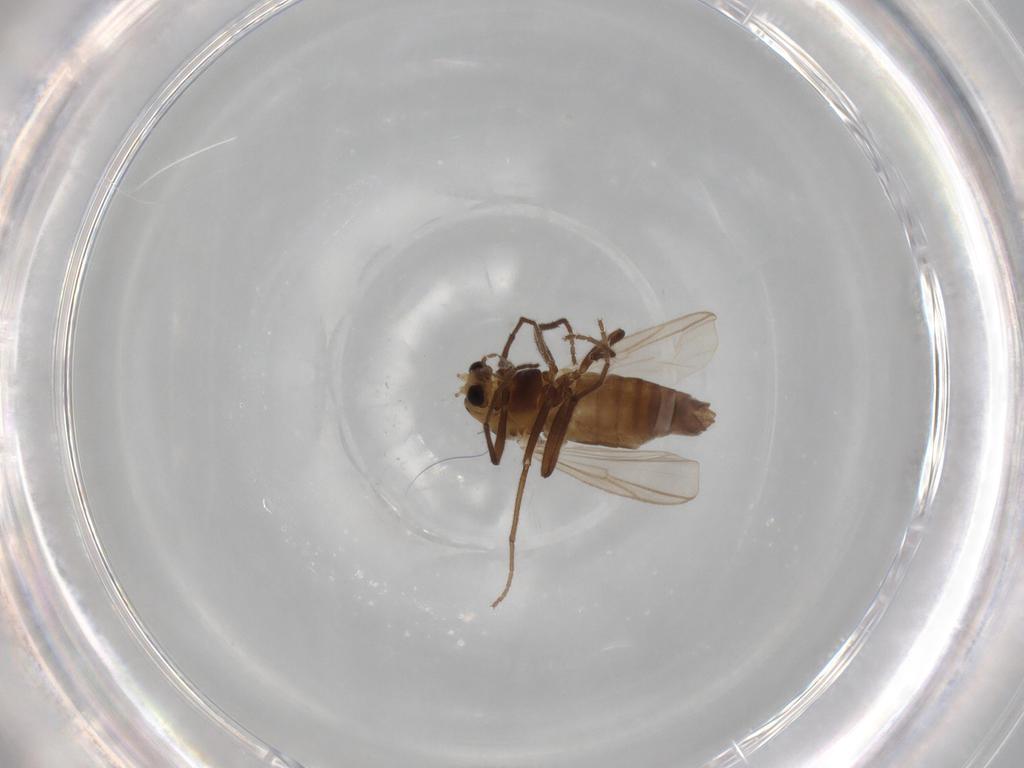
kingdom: Animalia
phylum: Arthropoda
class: Insecta
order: Diptera
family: Chironomidae
